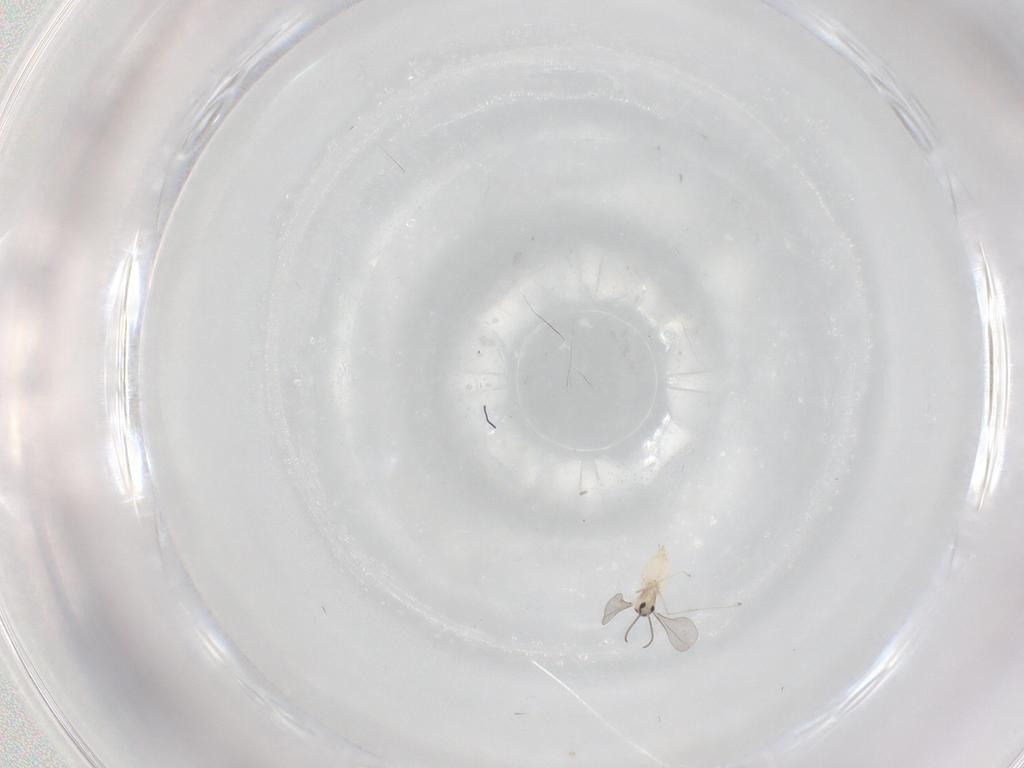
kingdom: Animalia
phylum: Arthropoda
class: Insecta
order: Diptera
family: Cecidomyiidae
